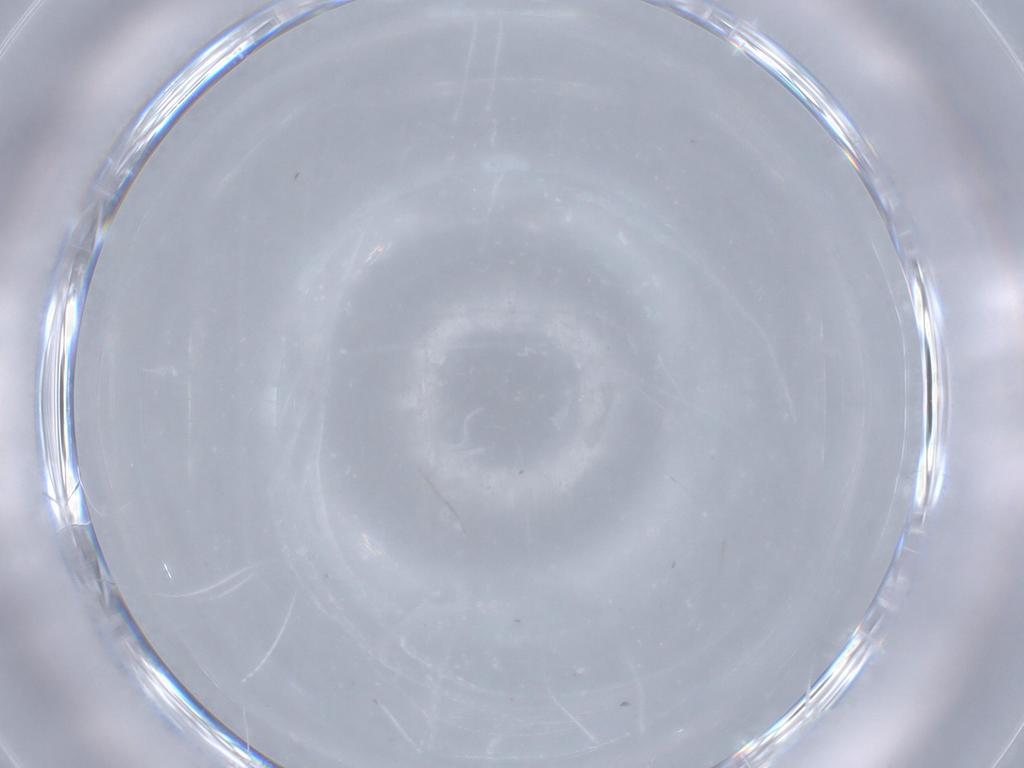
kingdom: Animalia
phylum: Arthropoda
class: Insecta
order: Diptera
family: Cecidomyiidae
